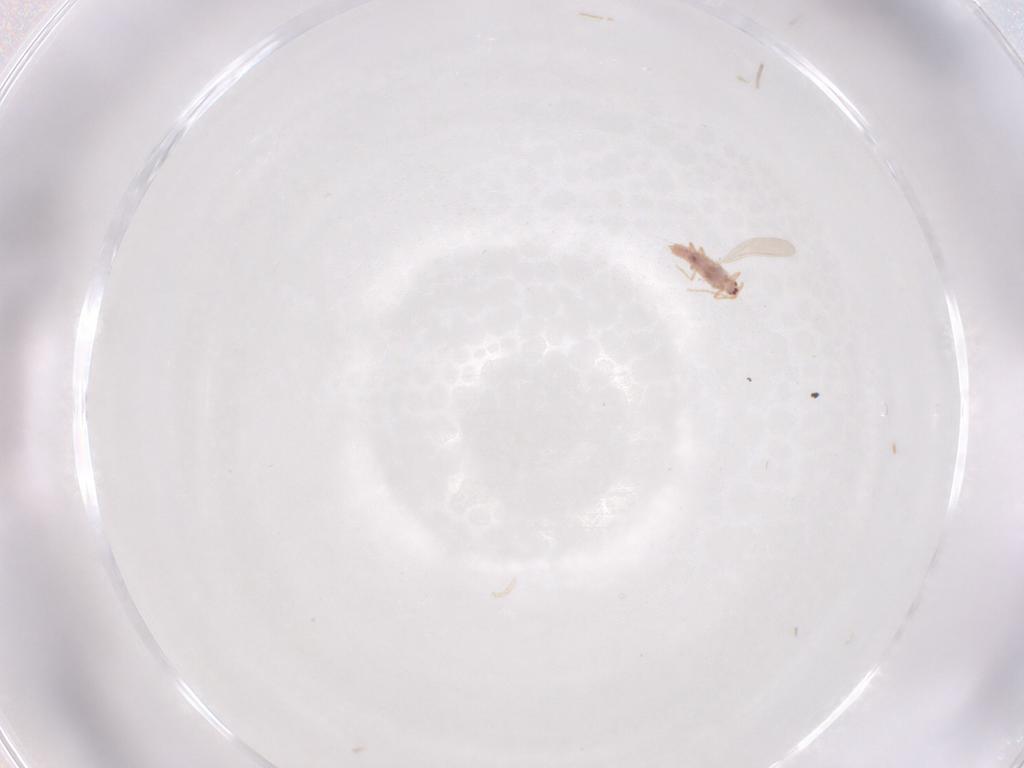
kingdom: Animalia
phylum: Arthropoda
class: Insecta
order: Hemiptera
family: Pseudococcidae
